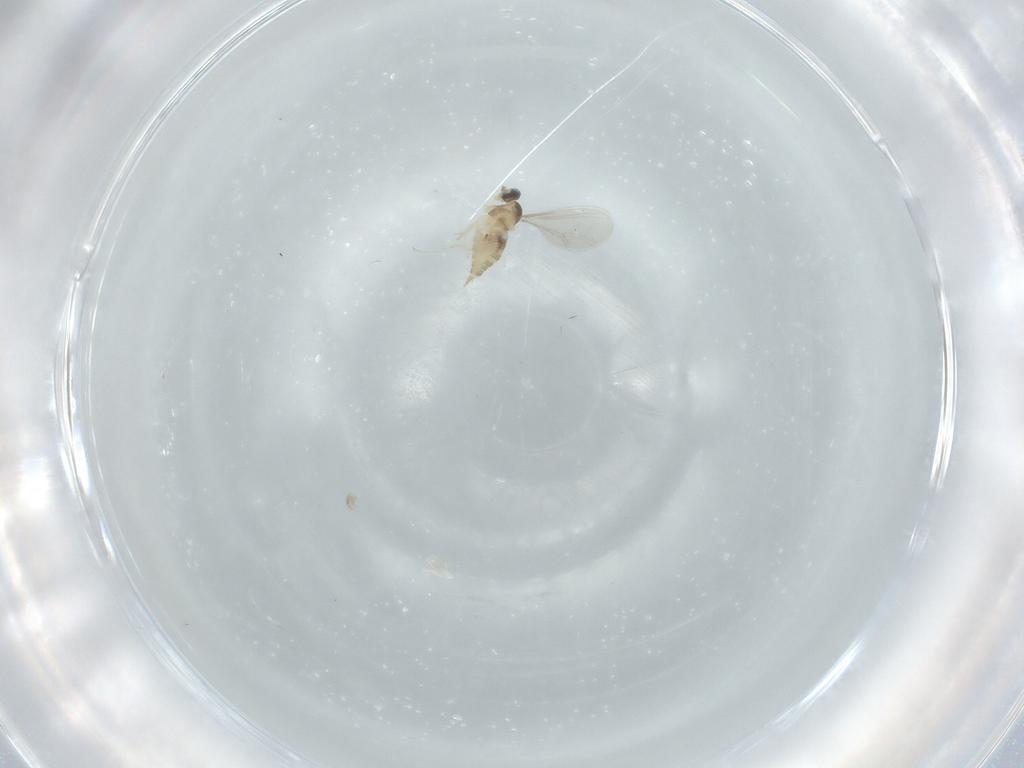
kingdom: Animalia
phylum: Arthropoda
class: Insecta
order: Diptera
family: Cecidomyiidae
